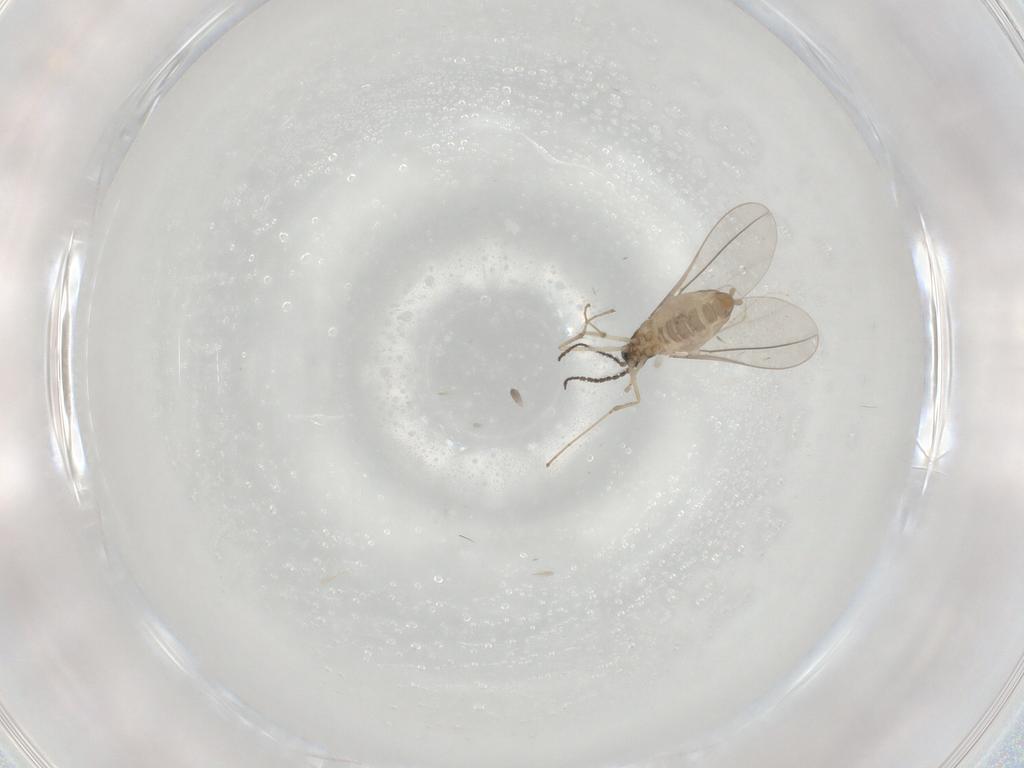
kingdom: Animalia
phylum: Arthropoda
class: Insecta
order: Diptera
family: Cecidomyiidae
